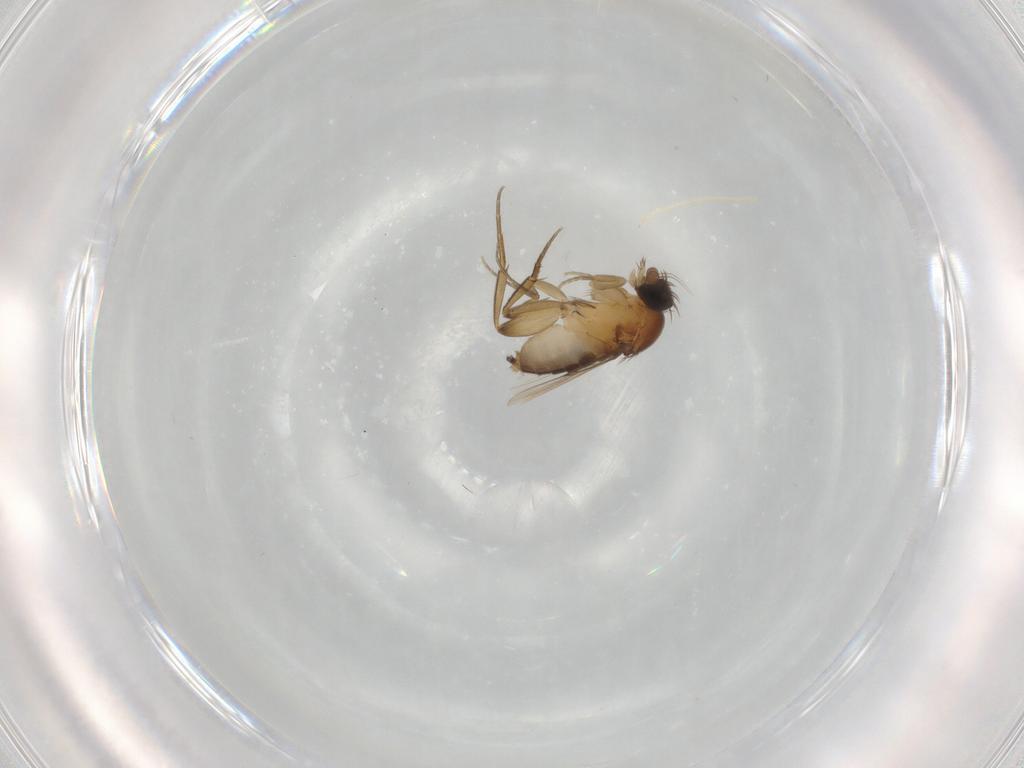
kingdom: Animalia
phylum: Arthropoda
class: Insecta
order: Diptera
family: Phoridae
